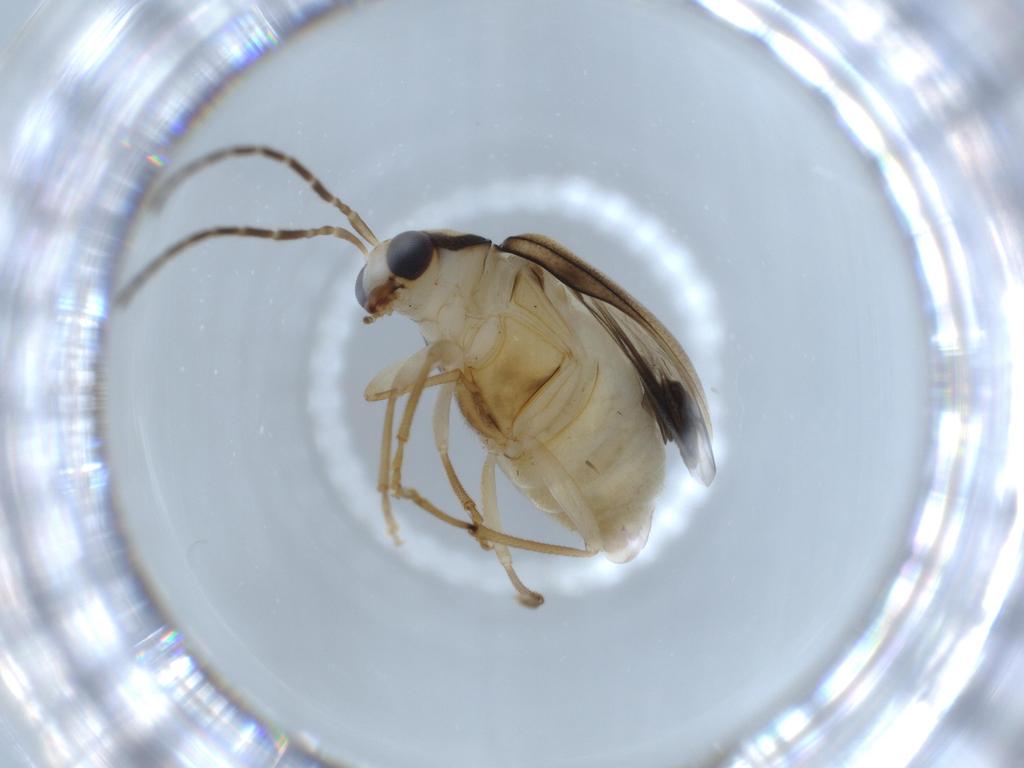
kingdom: Animalia
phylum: Arthropoda
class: Insecta
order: Coleoptera
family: Chrysomelidae
